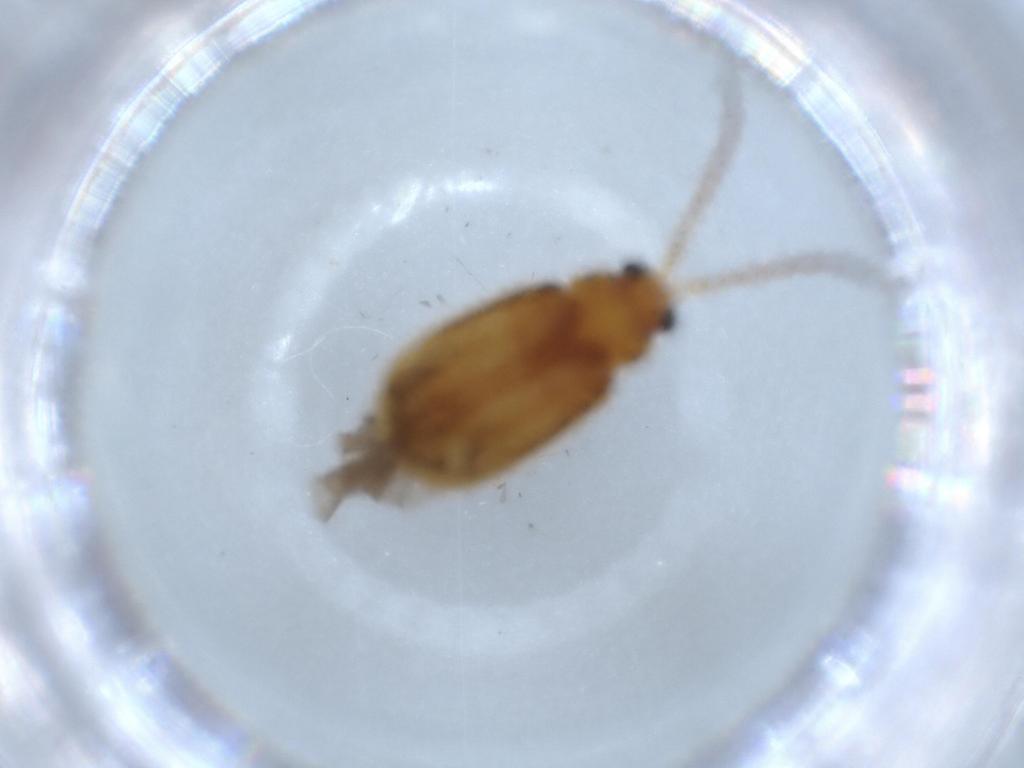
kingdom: Animalia
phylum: Arthropoda
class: Insecta
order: Coleoptera
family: Chrysomelidae
